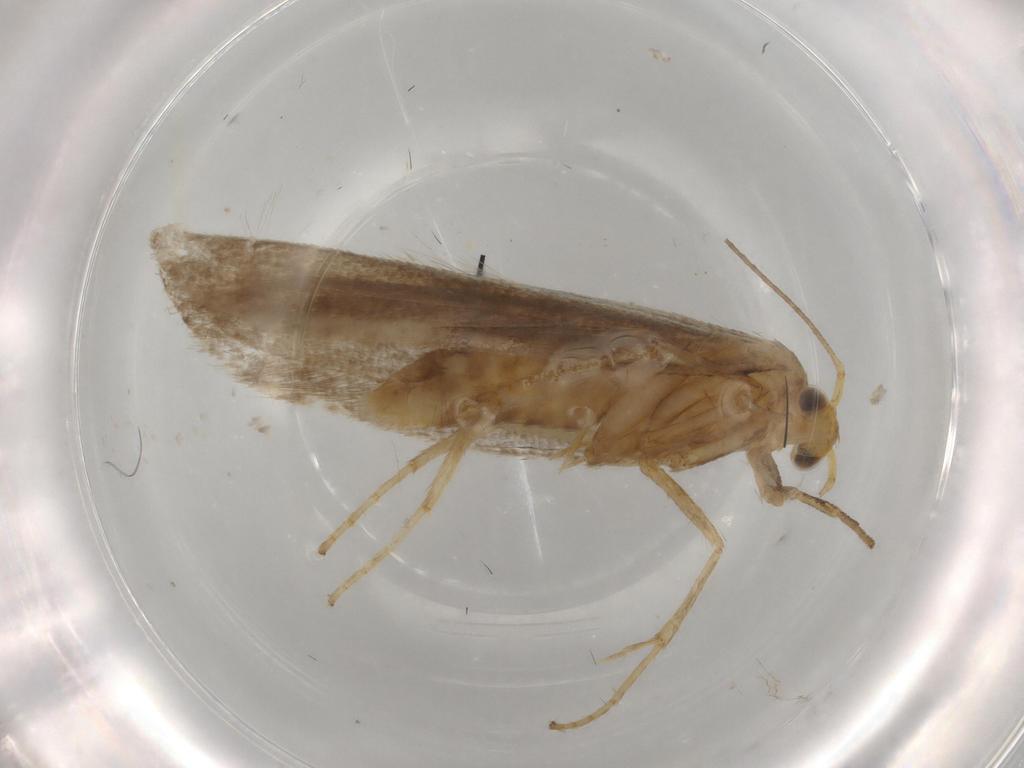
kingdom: Animalia
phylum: Arthropoda
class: Insecta
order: Lepidoptera
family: Argyresthiidae
